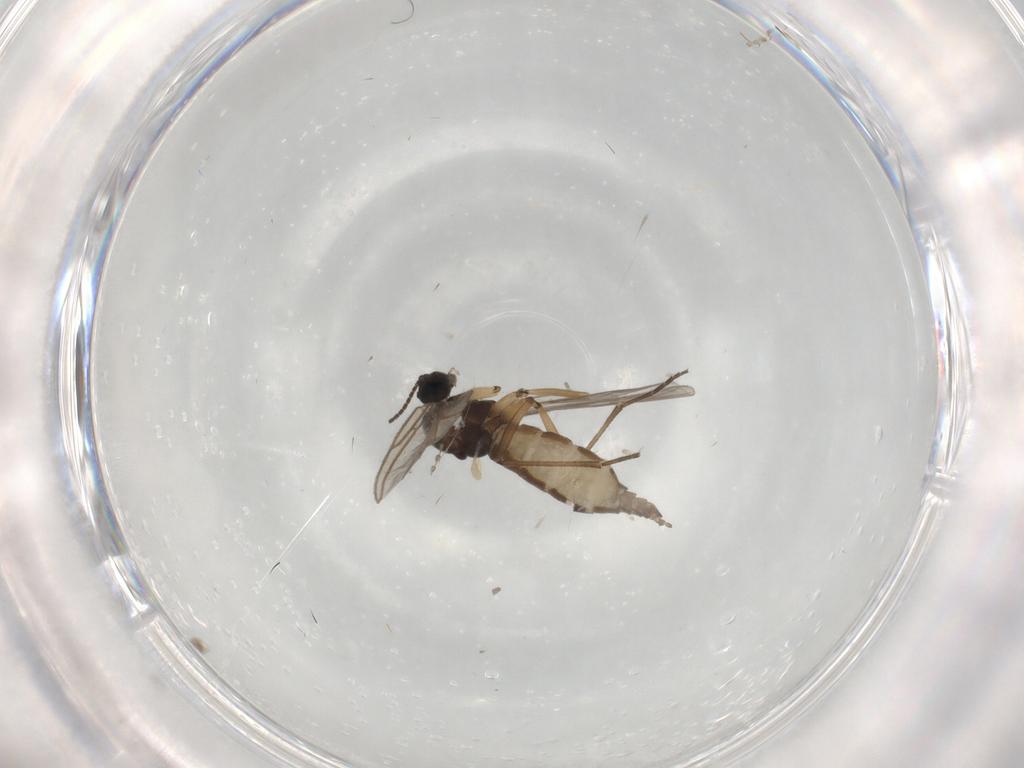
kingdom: Animalia
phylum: Arthropoda
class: Insecta
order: Diptera
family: Sciaridae
